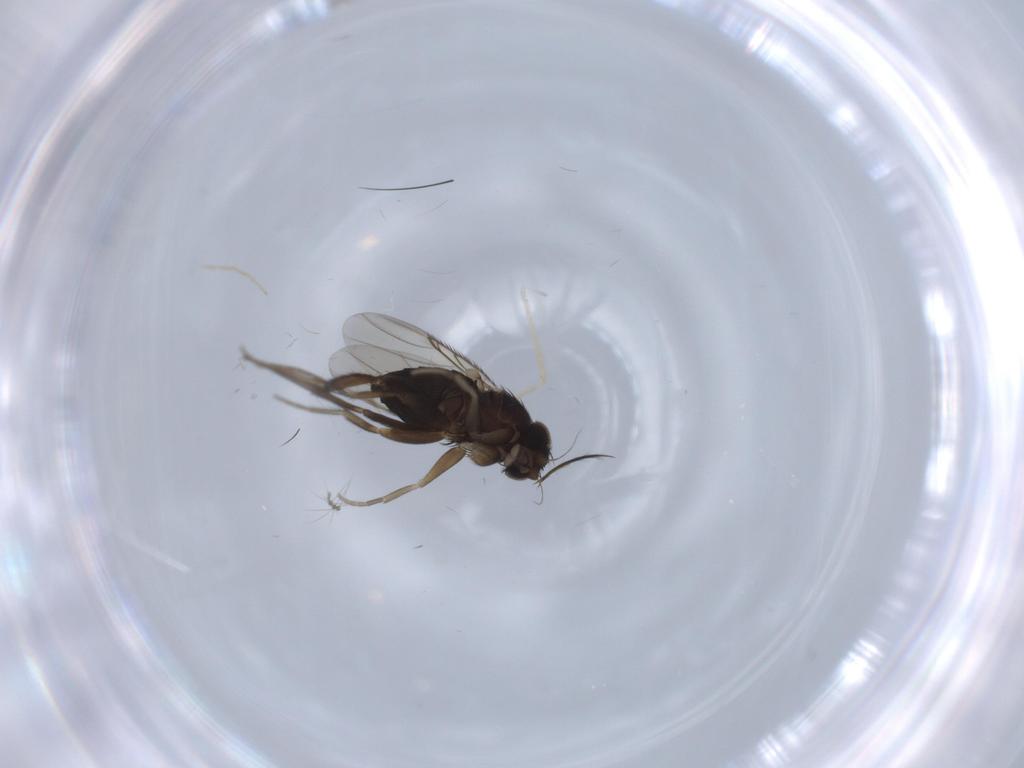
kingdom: Animalia
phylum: Arthropoda
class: Insecta
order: Diptera
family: Phoridae
